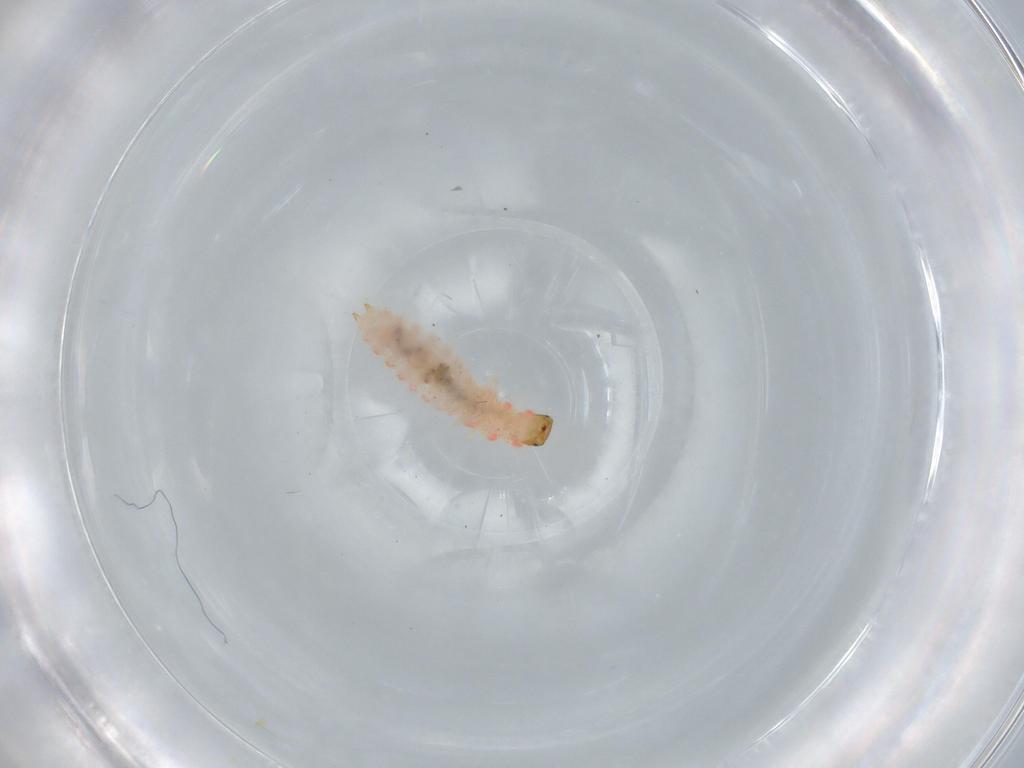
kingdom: Animalia
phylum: Arthropoda
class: Insecta
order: Coleoptera
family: Melyridae
